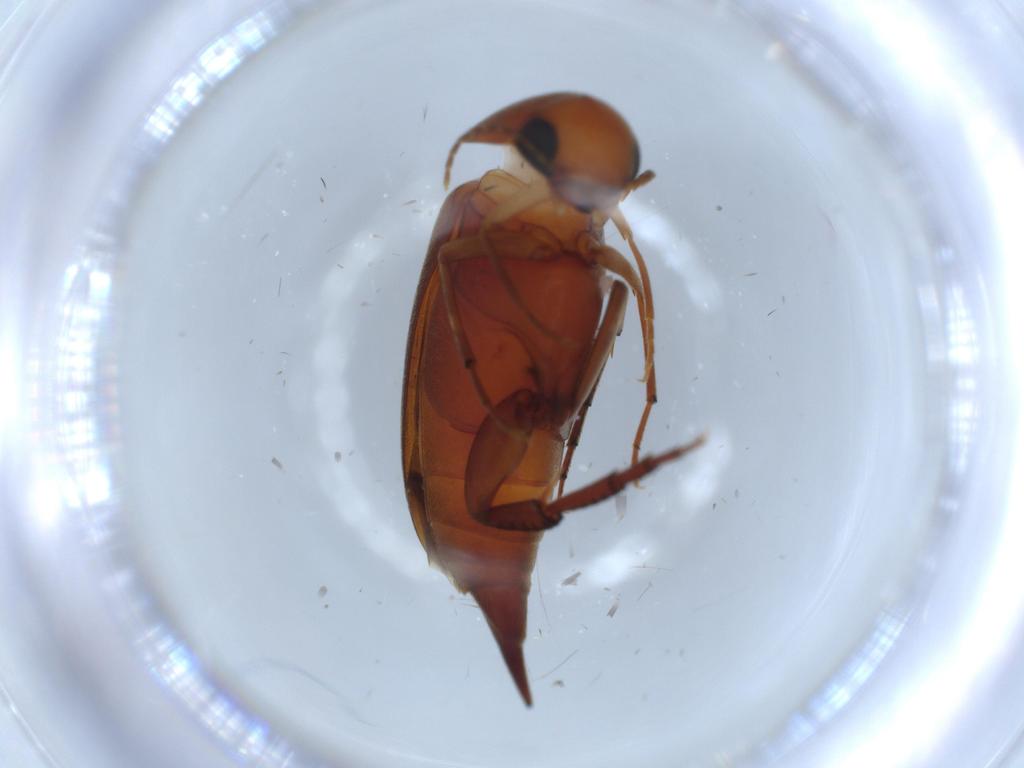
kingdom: Animalia
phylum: Arthropoda
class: Insecta
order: Coleoptera
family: Mordellidae
